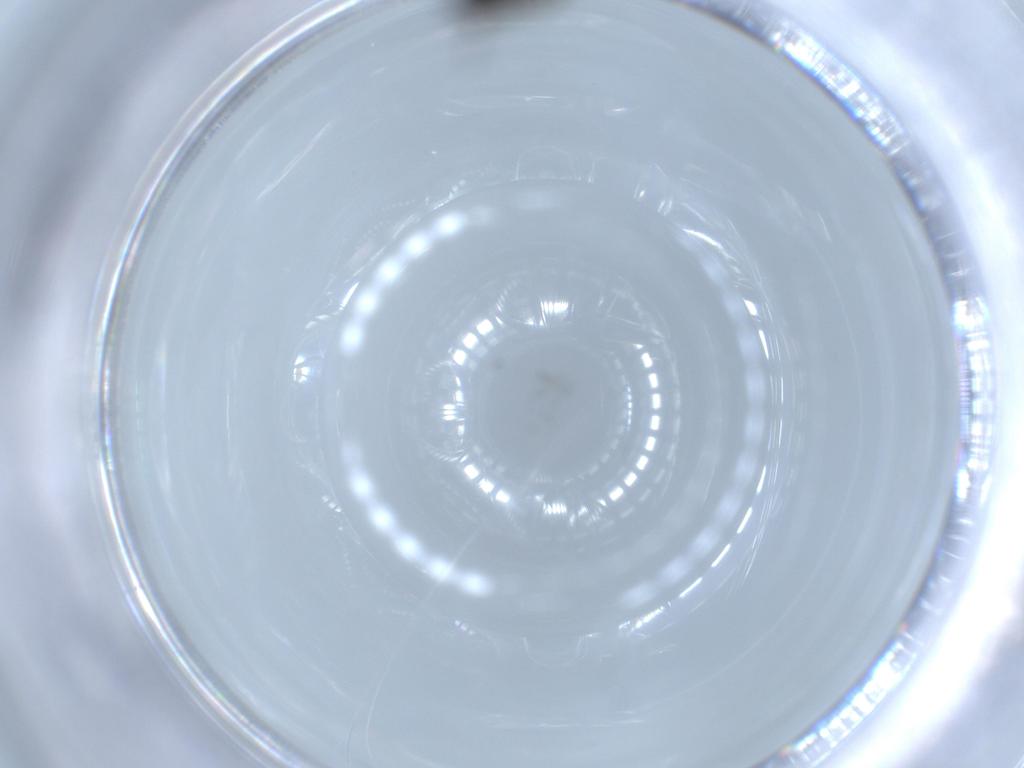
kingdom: Animalia
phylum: Arthropoda
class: Insecta
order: Diptera
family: Phoridae
